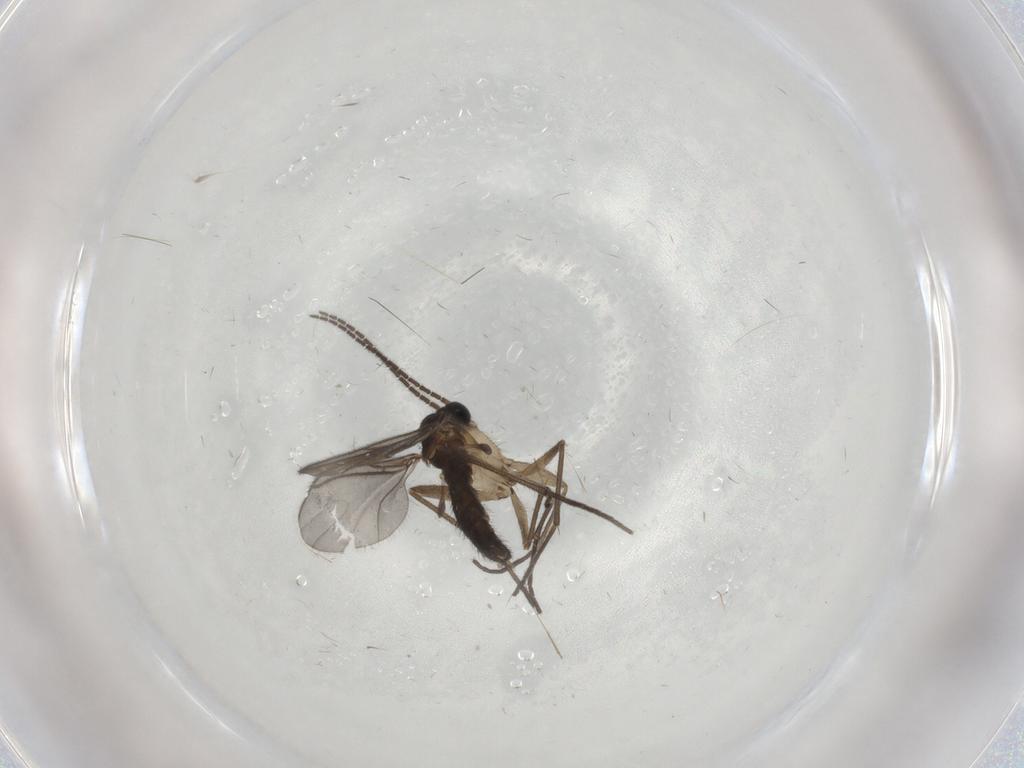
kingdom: Animalia
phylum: Arthropoda
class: Insecta
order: Diptera
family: Sciaridae
